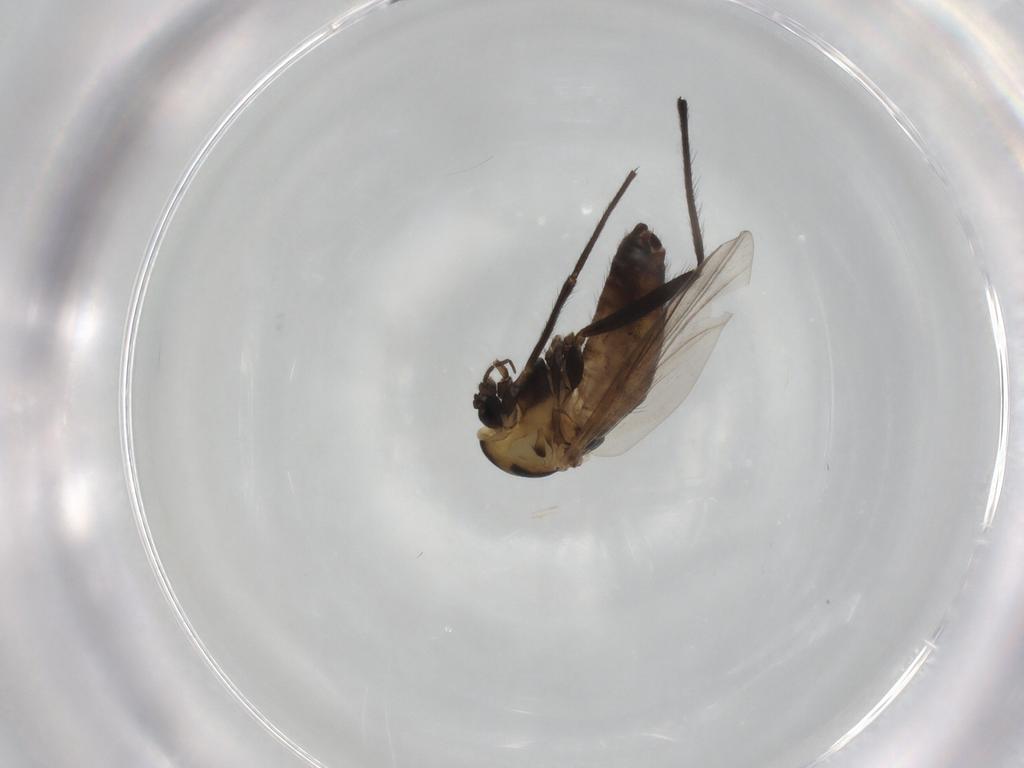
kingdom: Animalia
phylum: Arthropoda
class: Insecta
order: Diptera
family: Chironomidae
